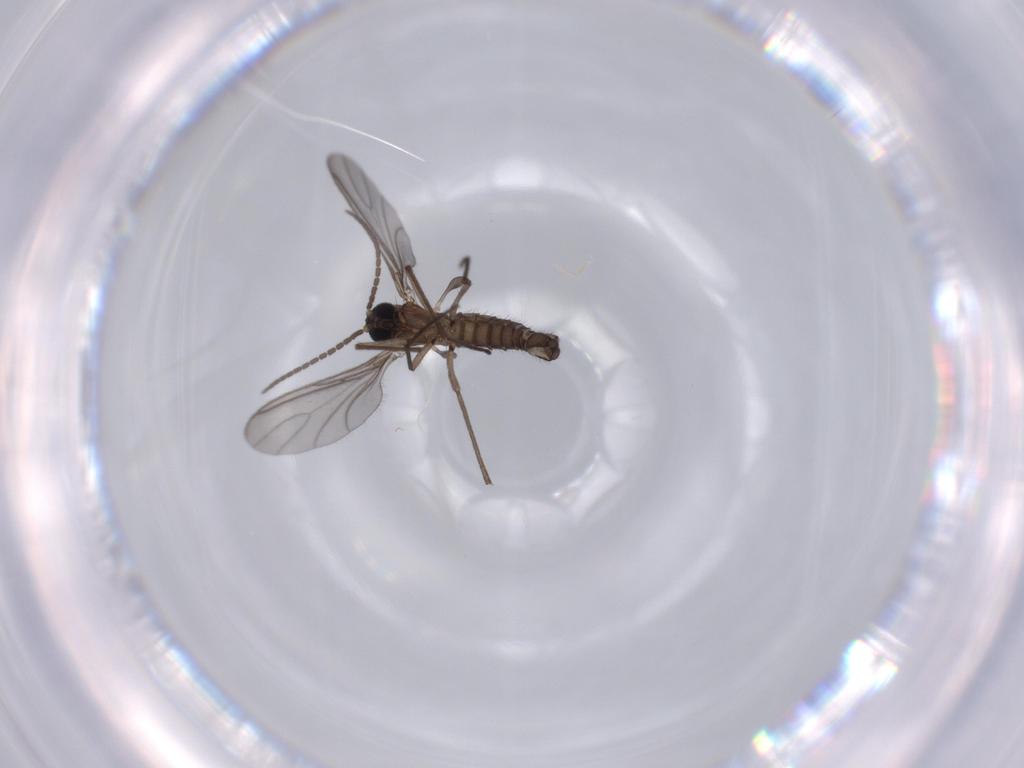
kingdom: Animalia
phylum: Arthropoda
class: Insecta
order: Diptera
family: Sciaridae
